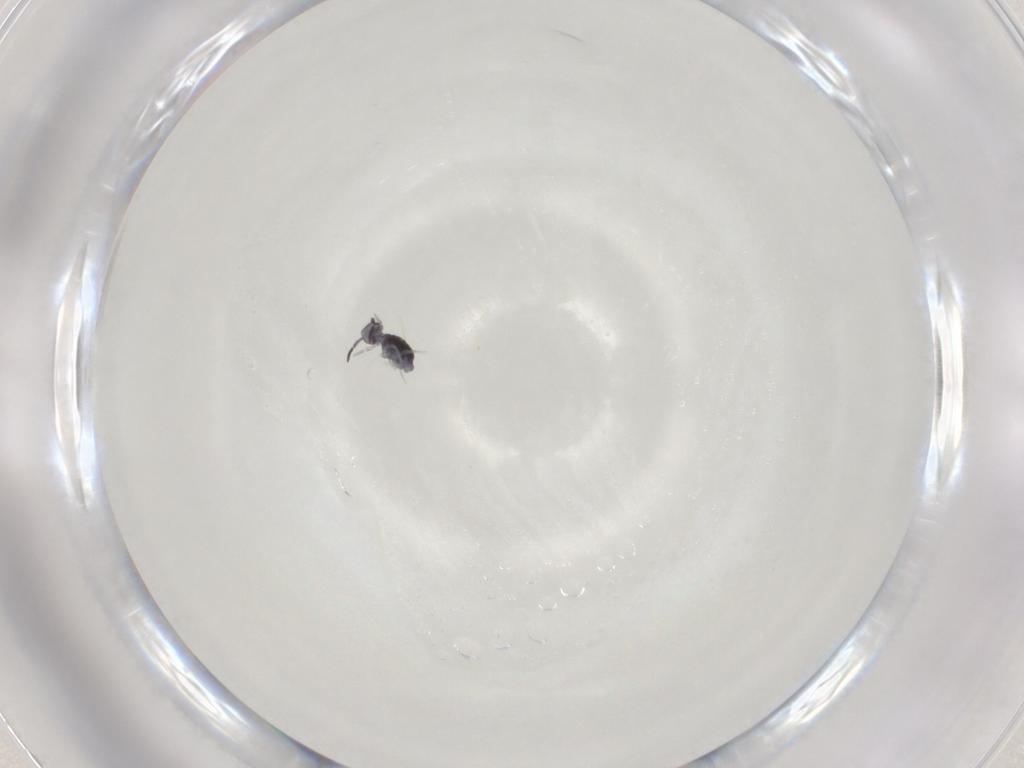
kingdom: Animalia
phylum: Arthropoda
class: Collembola
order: Symphypleona
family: Katiannidae
